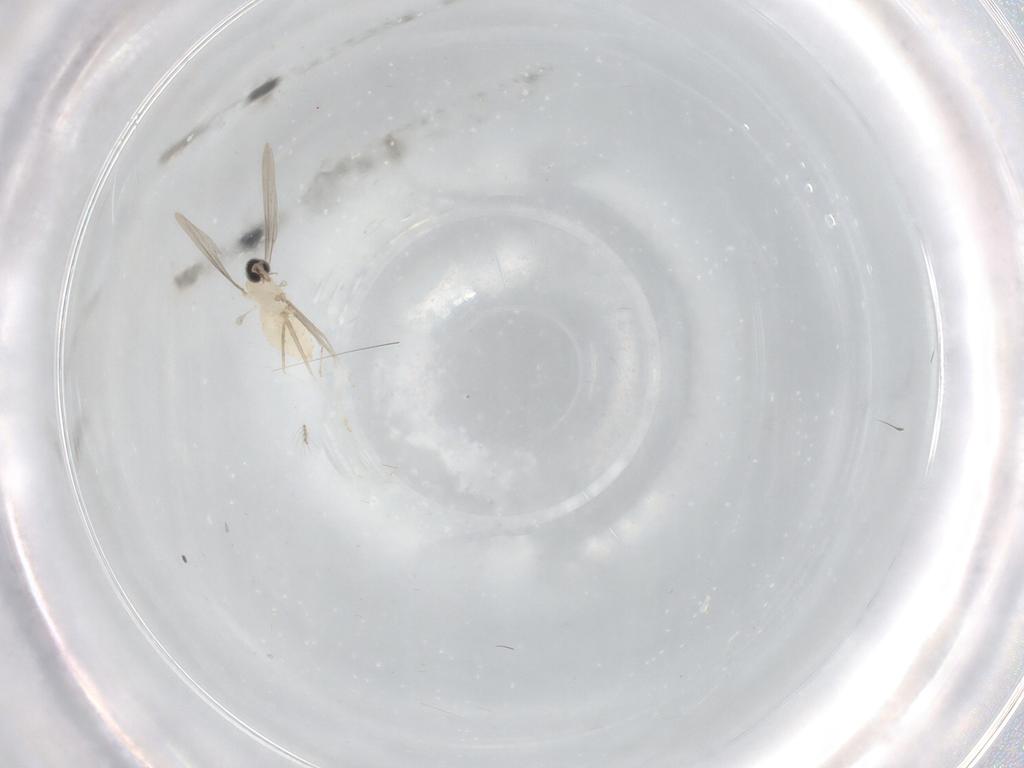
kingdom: Animalia
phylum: Arthropoda
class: Insecta
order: Diptera
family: Cecidomyiidae
